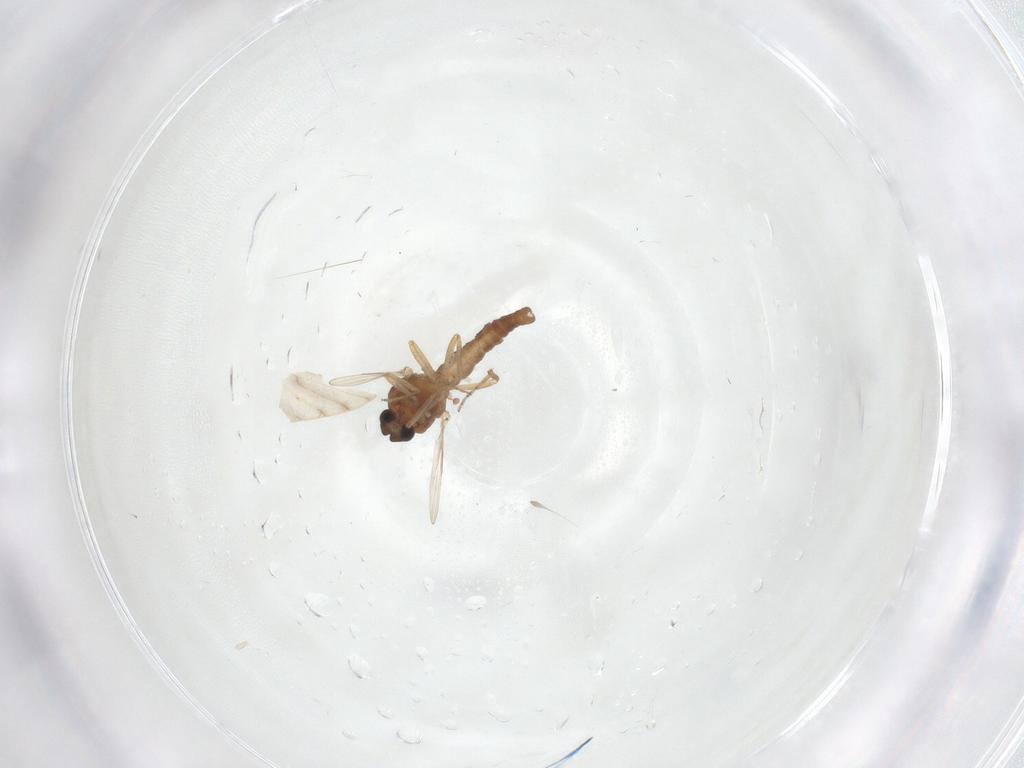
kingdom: Animalia
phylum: Arthropoda
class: Insecta
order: Diptera
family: Ceratopogonidae
